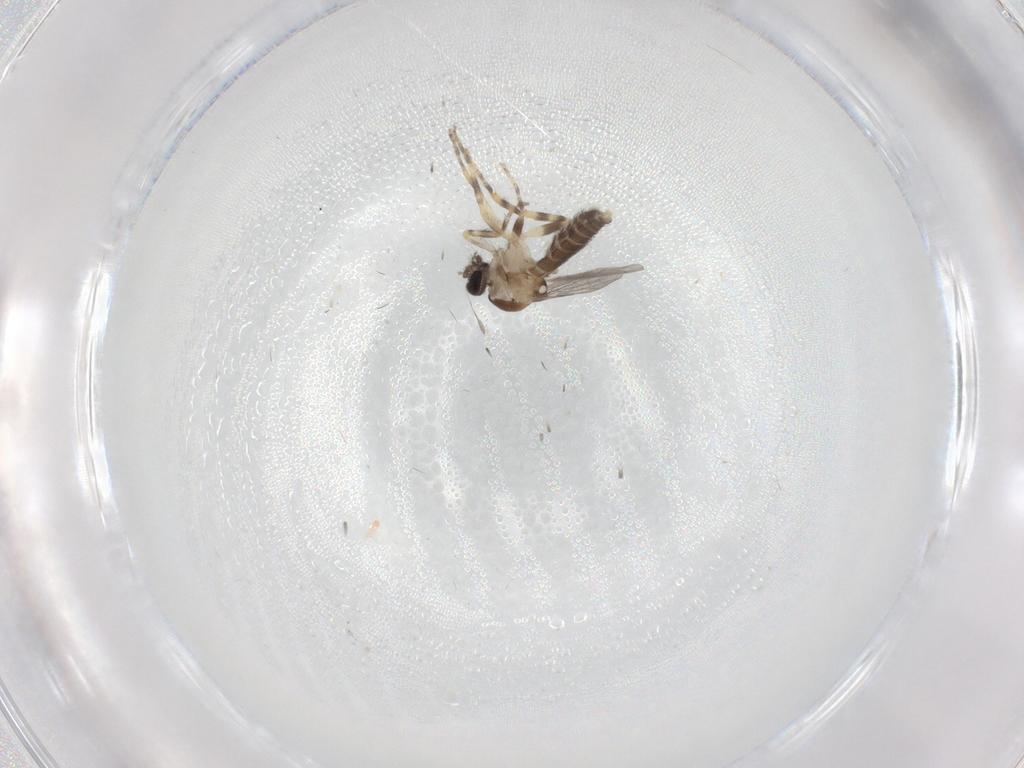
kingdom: Animalia
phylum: Arthropoda
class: Insecta
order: Diptera
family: Ceratopogonidae
